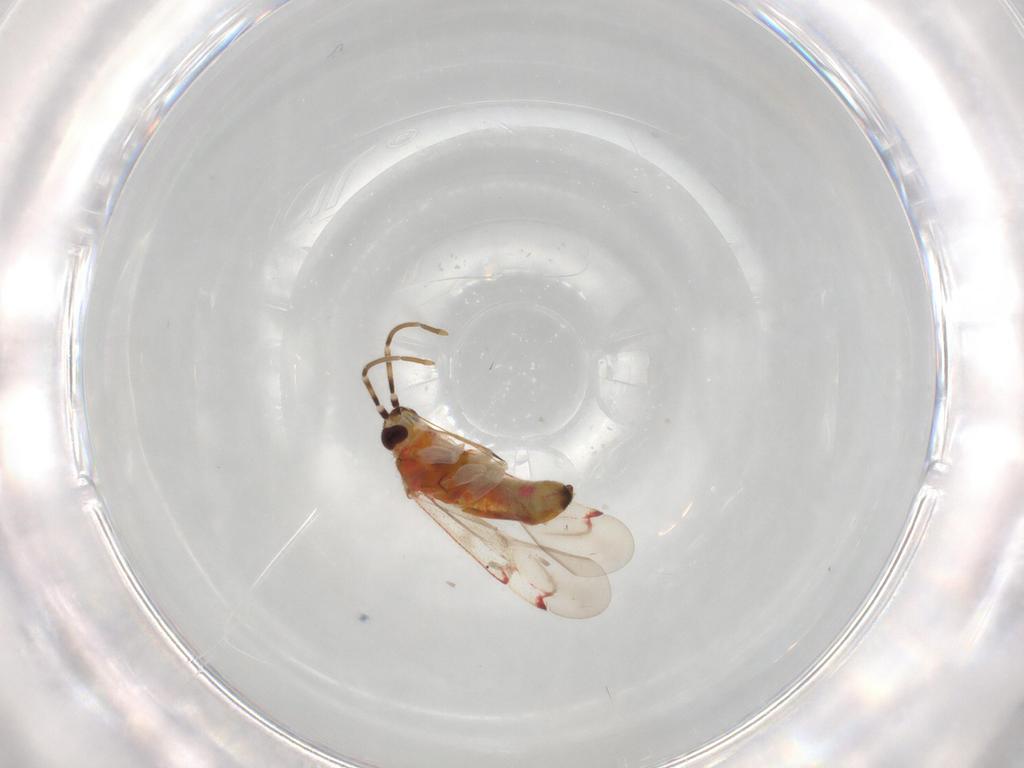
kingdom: Animalia
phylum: Arthropoda
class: Insecta
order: Hemiptera
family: Miridae
